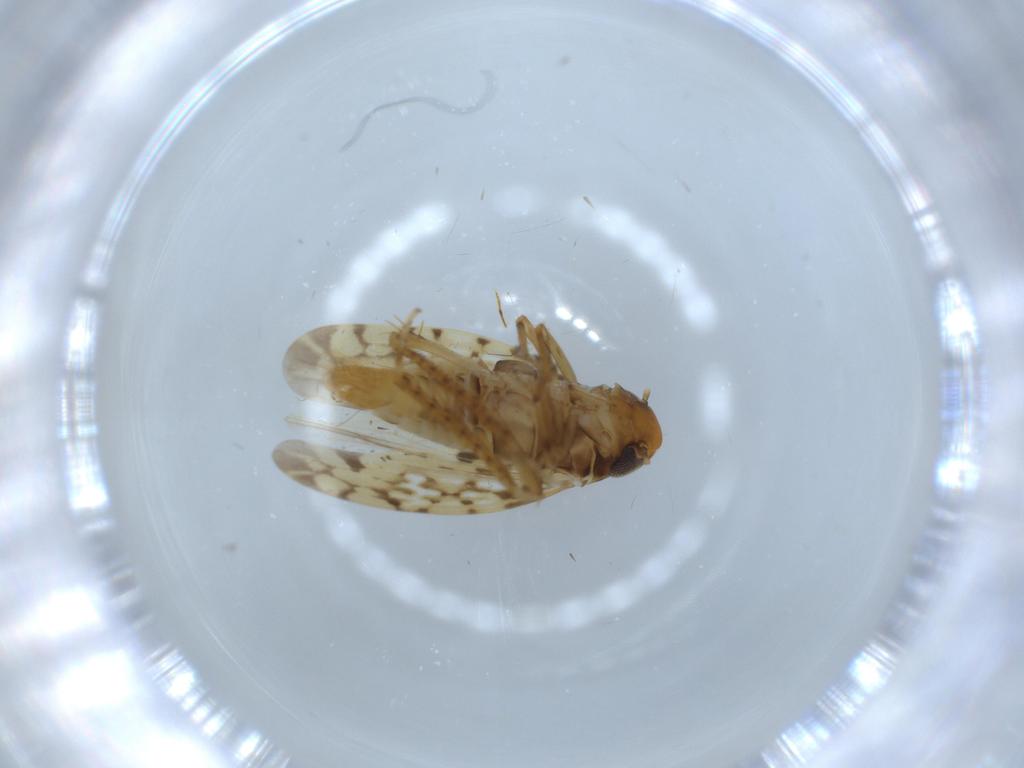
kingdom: Animalia
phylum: Arthropoda
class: Insecta
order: Hemiptera
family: Cicadellidae
